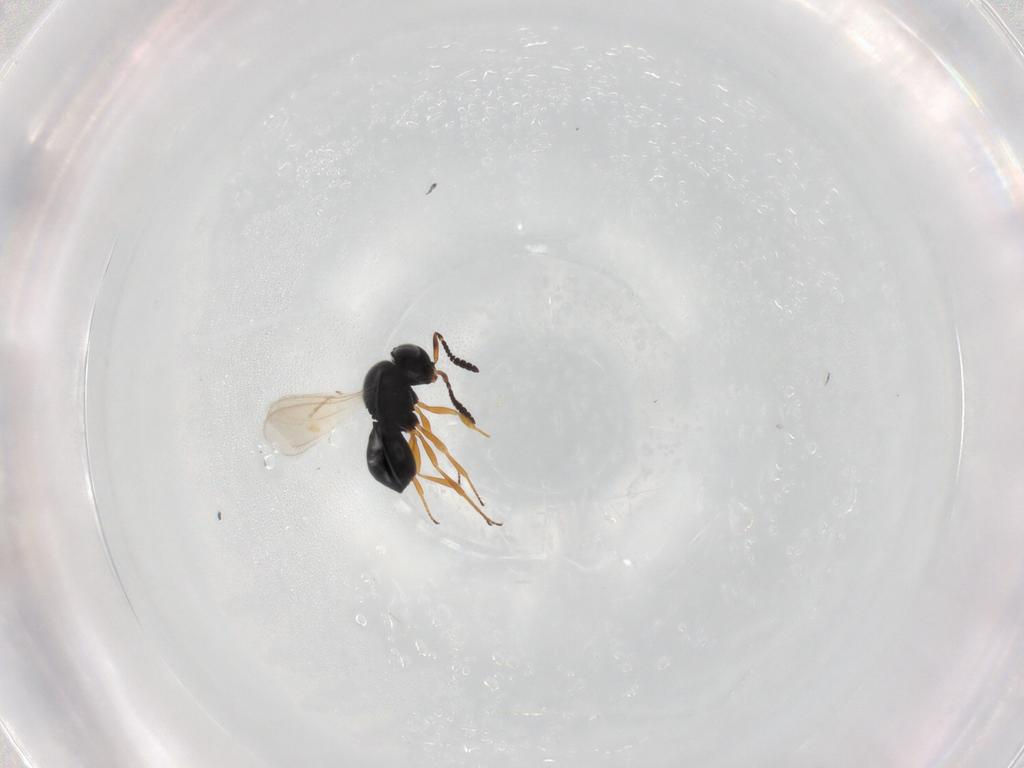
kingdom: Animalia
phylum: Arthropoda
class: Insecta
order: Hymenoptera
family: Scelionidae
